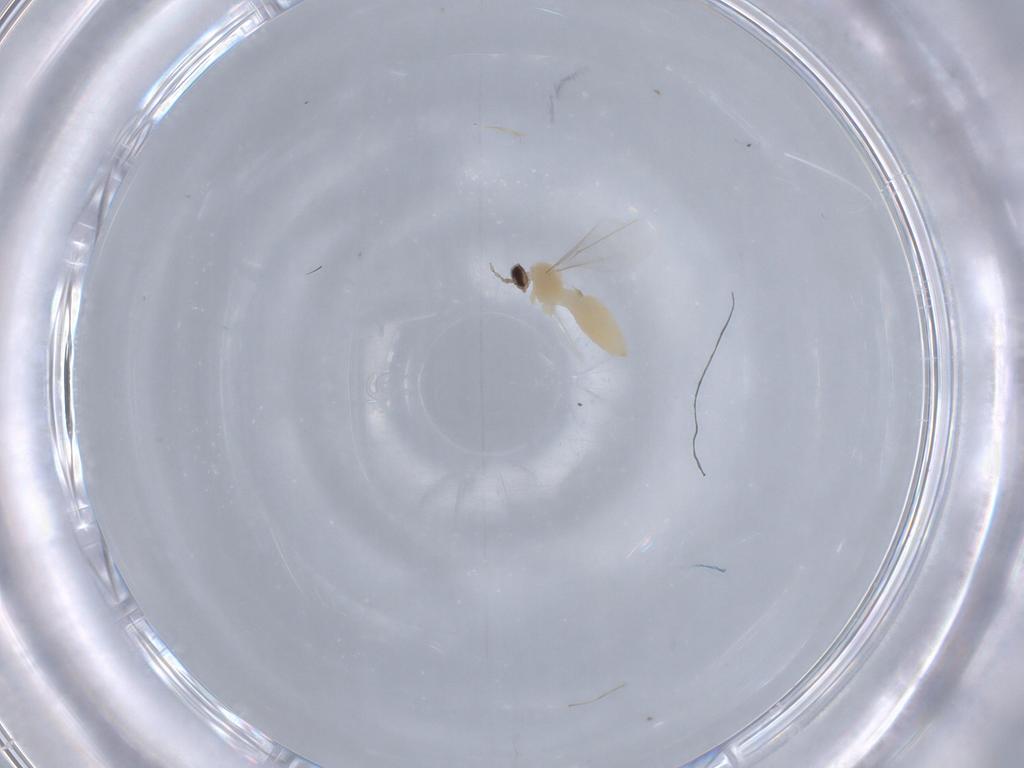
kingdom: Animalia
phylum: Arthropoda
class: Insecta
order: Diptera
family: Cecidomyiidae
